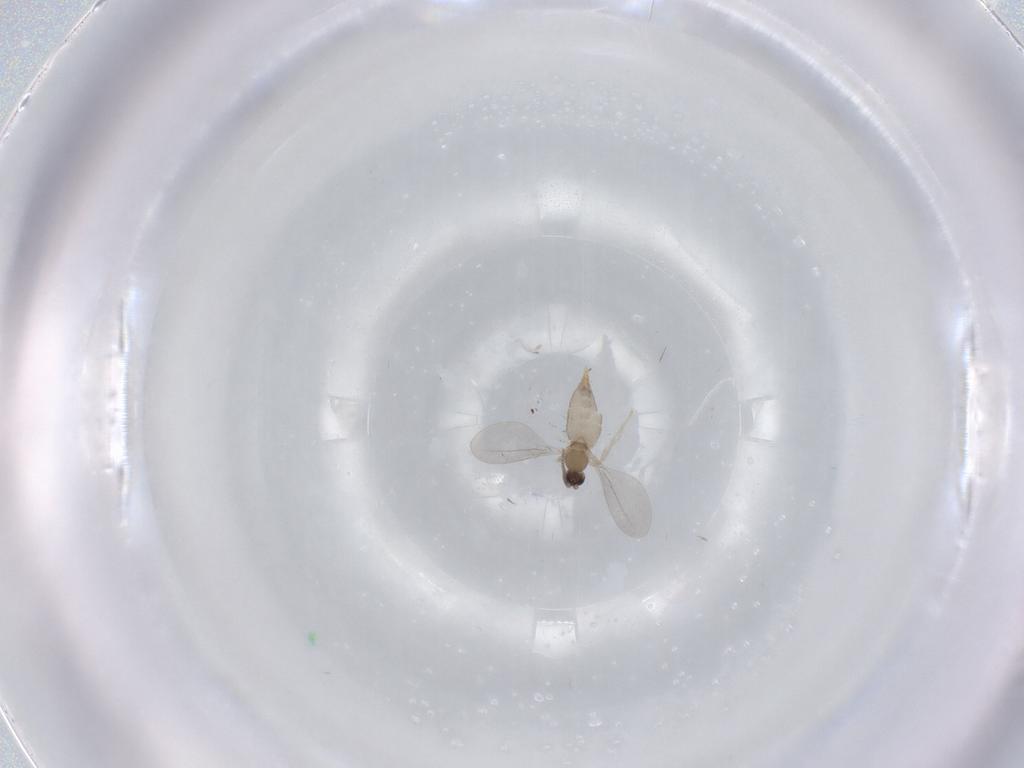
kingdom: Animalia
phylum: Arthropoda
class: Insecta
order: Diptera
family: Cecidomyiidae
